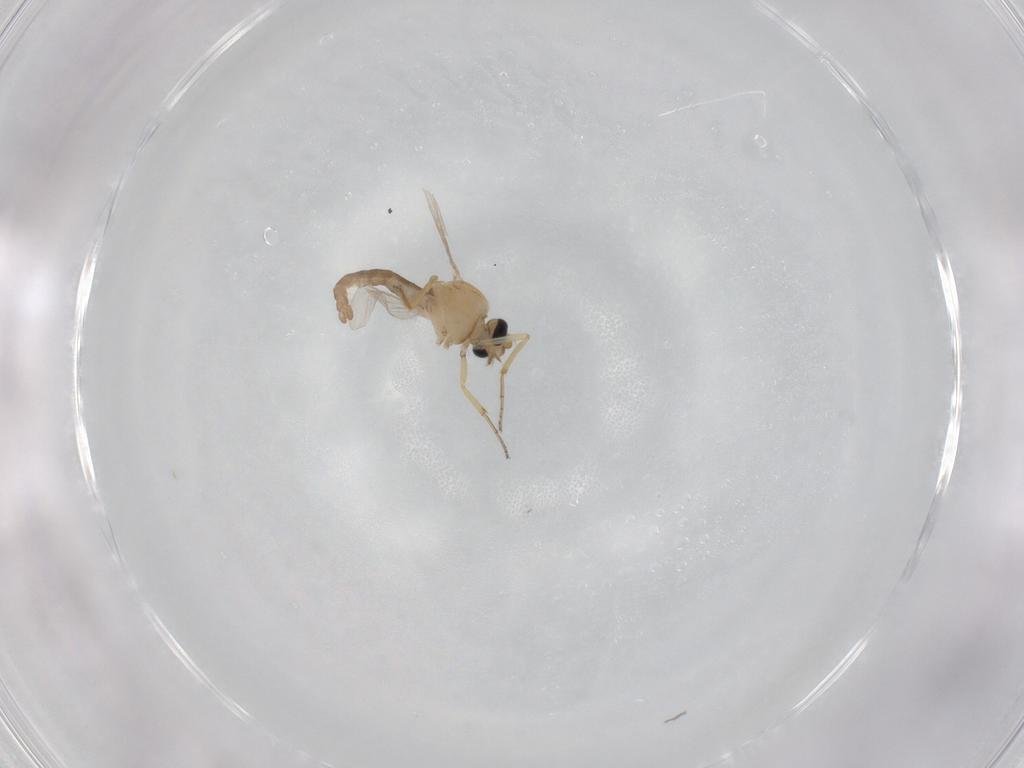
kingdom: Animalia
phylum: Arthropoda
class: Insecta
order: Diptera
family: Ceratopogonidae
